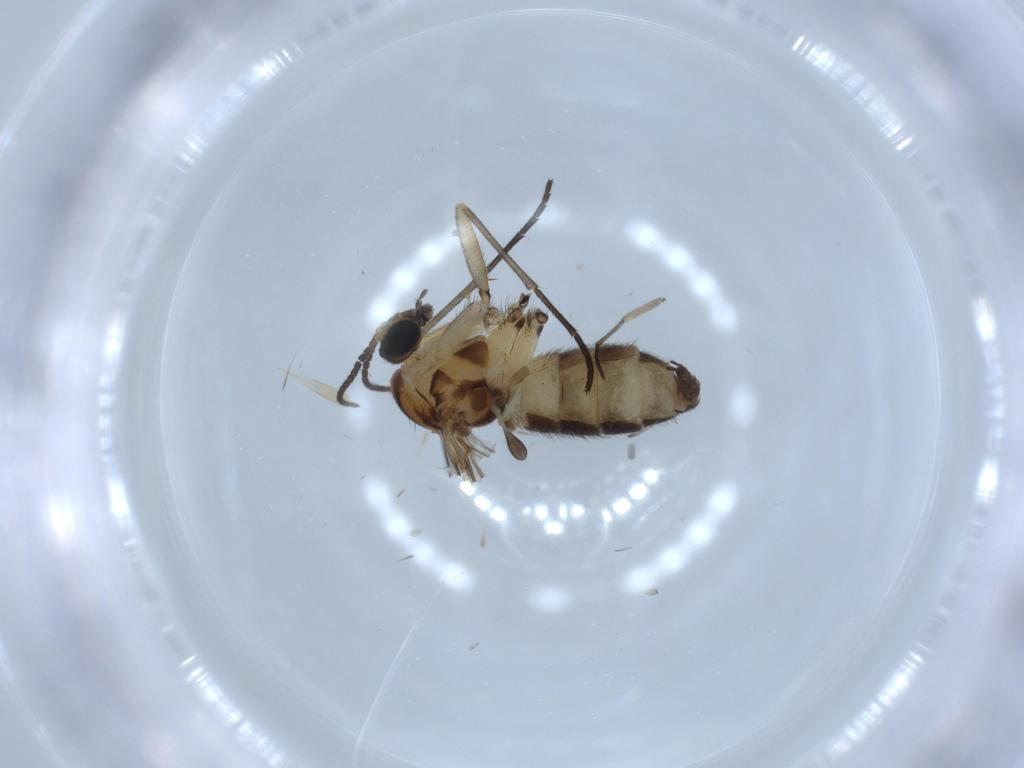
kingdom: Animalia
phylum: Arthropoda
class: Insecta
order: Diptera
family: Sciaridae
